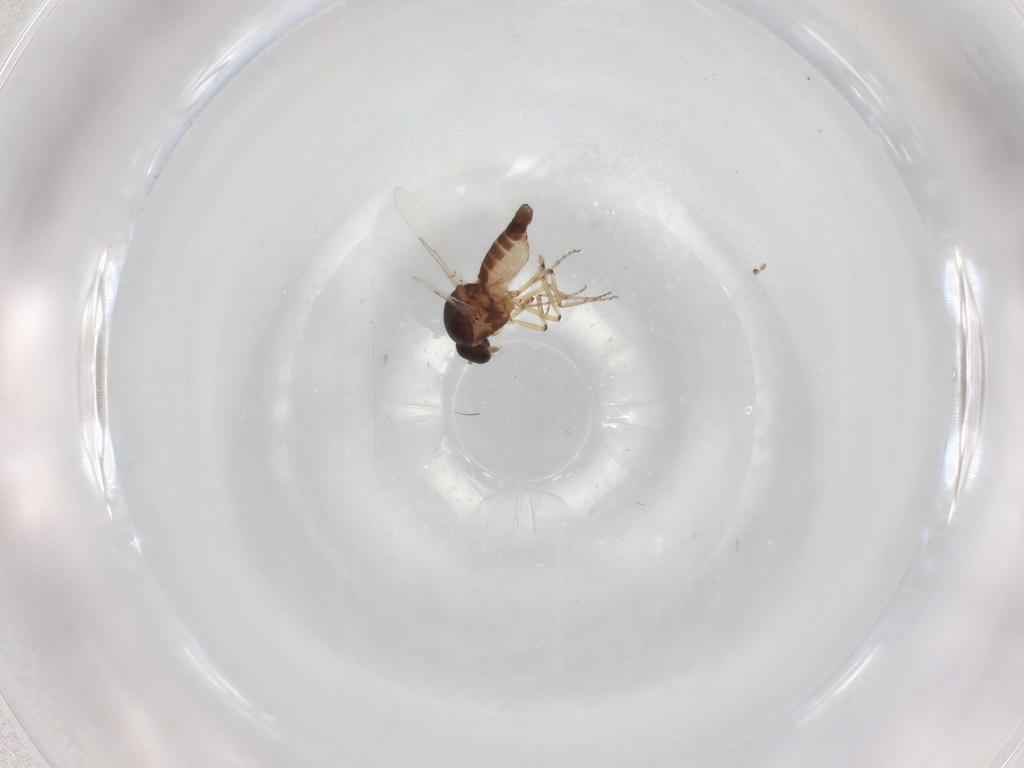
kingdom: Animalia
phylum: Arthropoda
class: Insecta
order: Diptera
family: Ceratopogonidae
